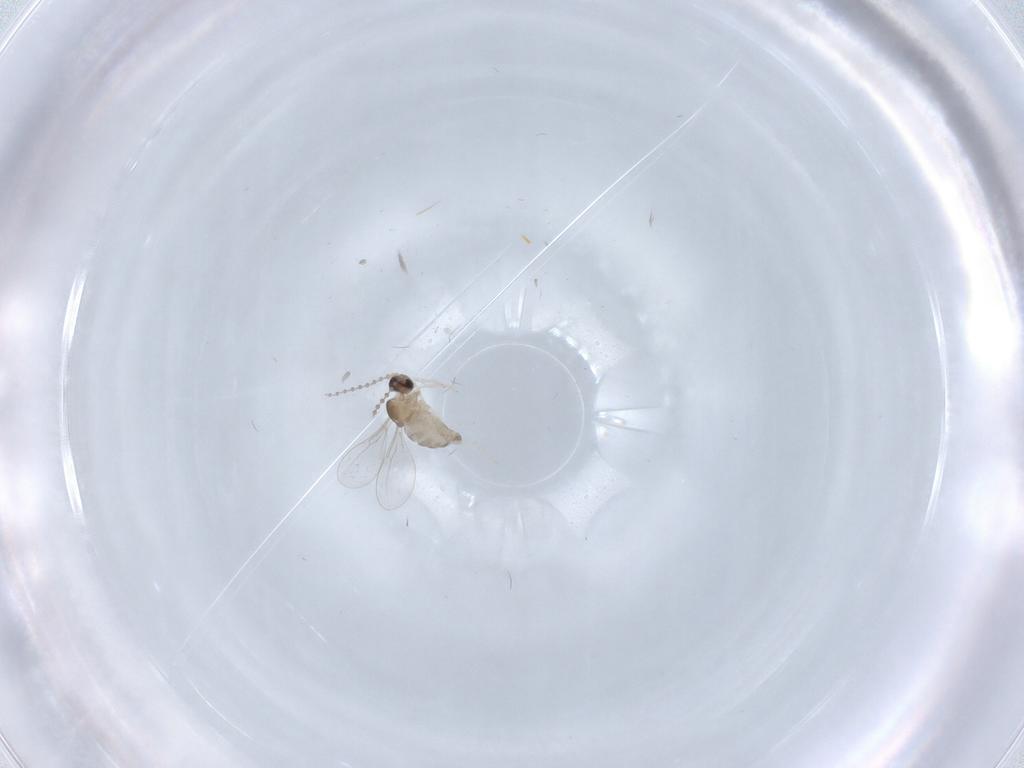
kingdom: Animalia
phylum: Arthropoda
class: Insecta
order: Diptera
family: Cecidomyiidae
